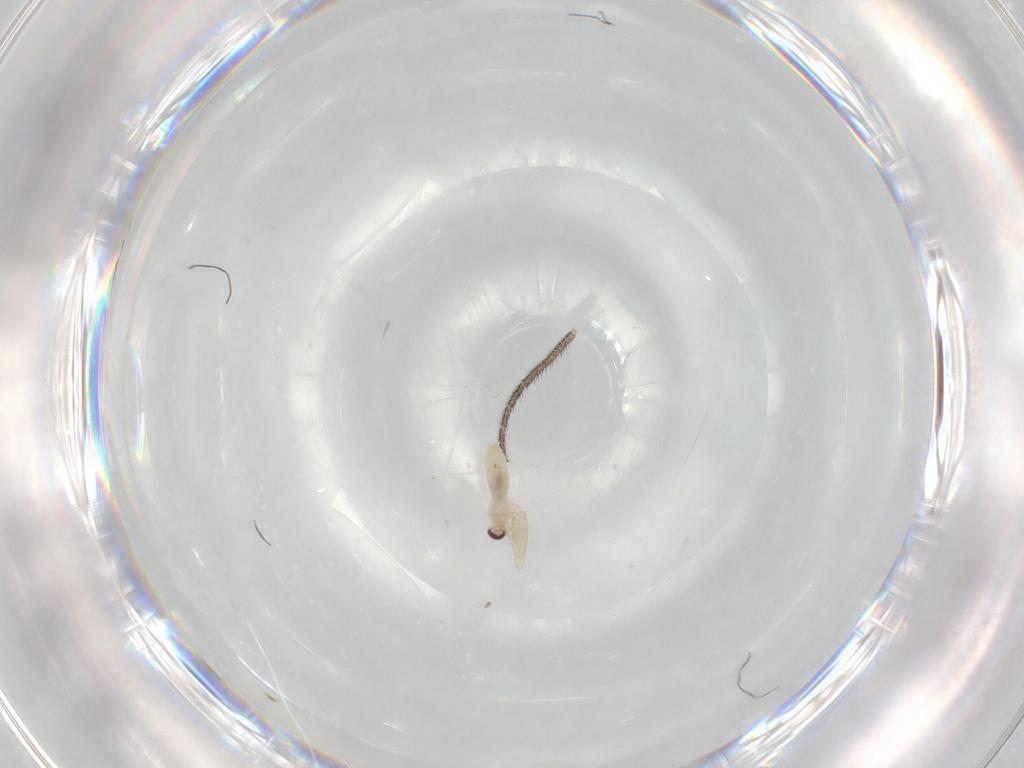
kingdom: Animalia
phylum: Arthropoda
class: Insecta
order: Diptera
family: Cecidomyiidae
